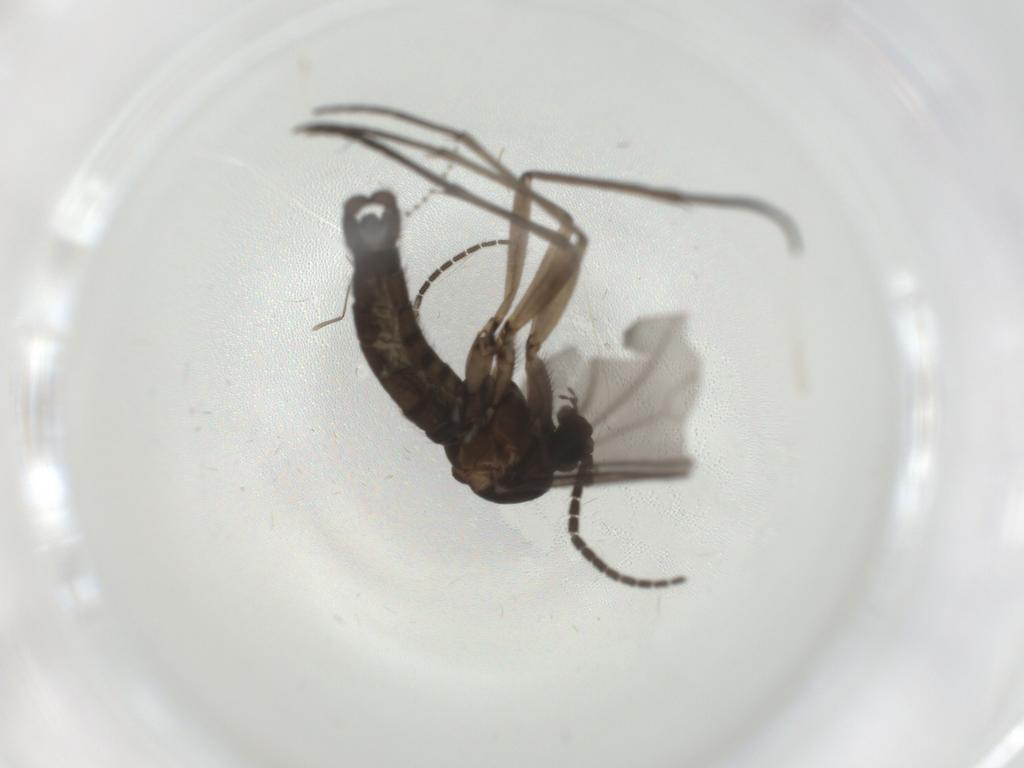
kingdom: Animalia
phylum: Arthropoda
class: Insecta
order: Diptera
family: Sciaridae
